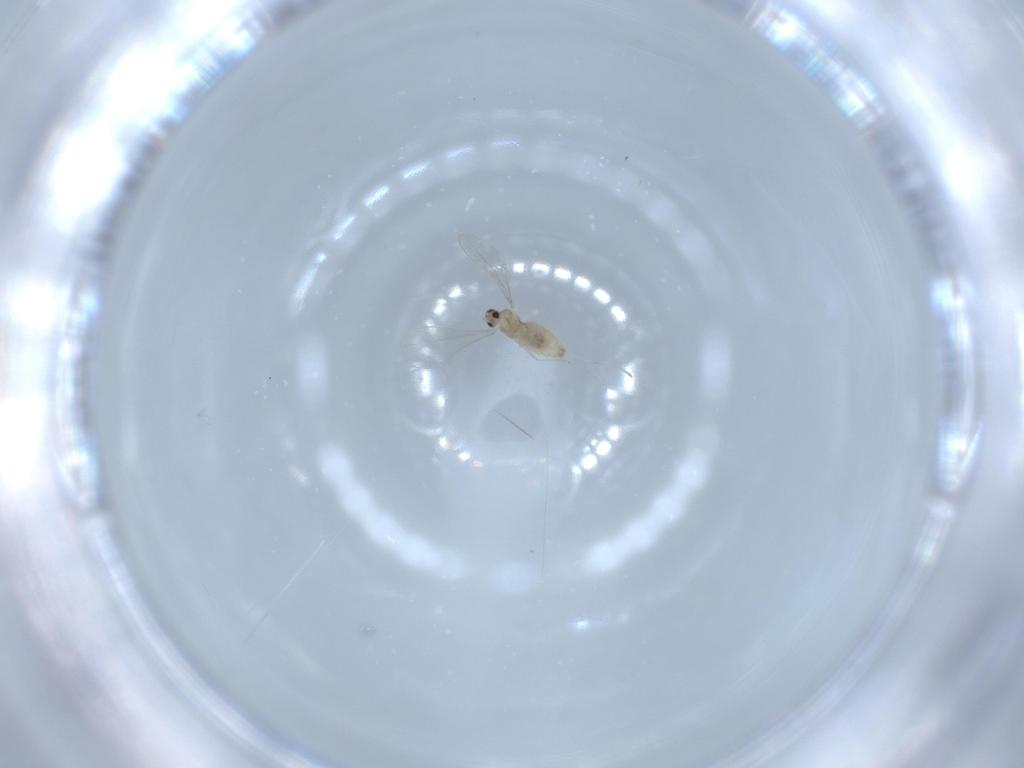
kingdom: Animalia
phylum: Arthropoda
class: Insecta
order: Diptera
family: Cecidomyiidae
